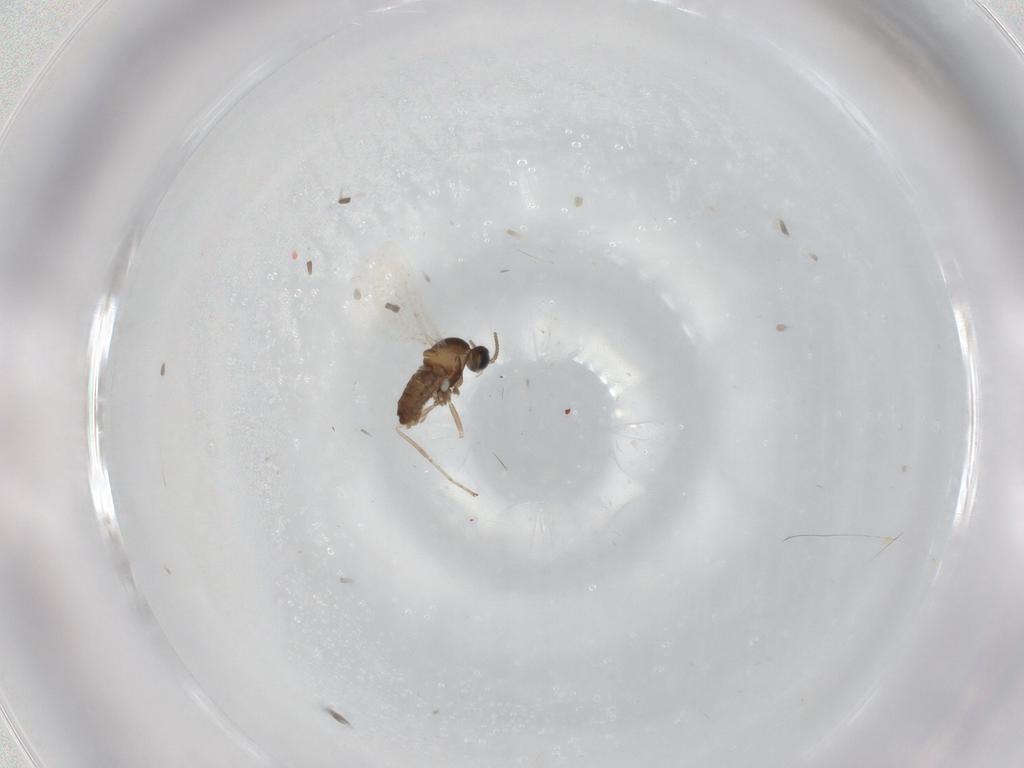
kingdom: Animalia
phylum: Arthropoda
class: Insecta
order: Diptera
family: Cecidomyiidae
